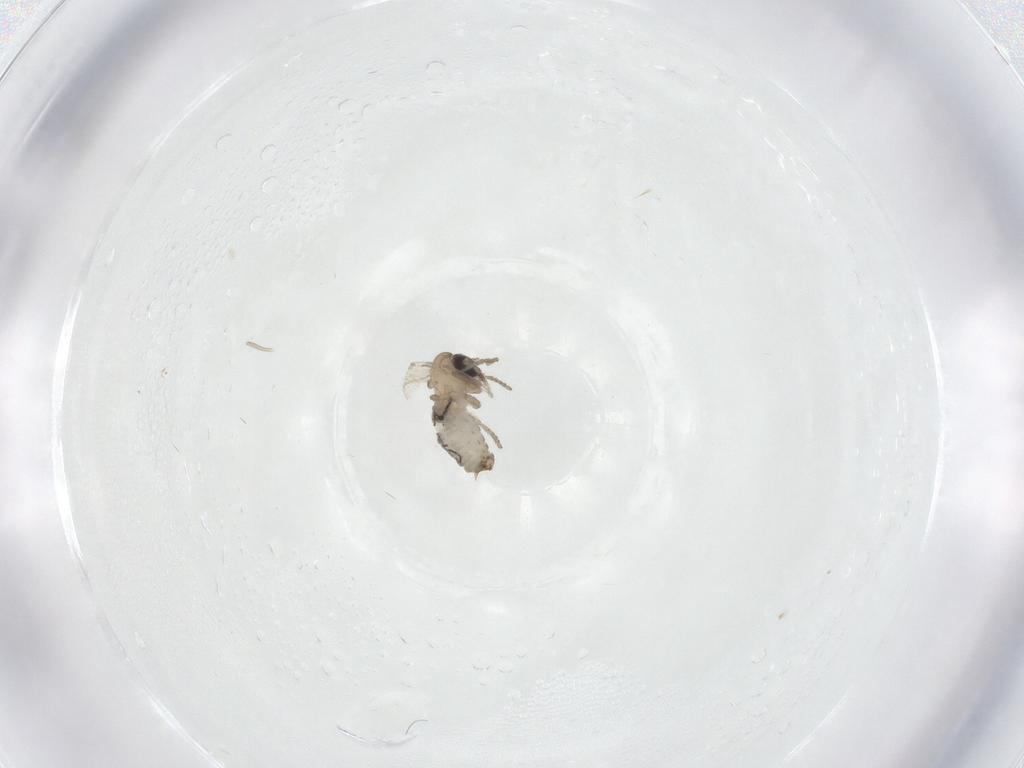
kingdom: Animalia
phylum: Arthropoda
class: Insecta
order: Diptera
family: Psychodidae
